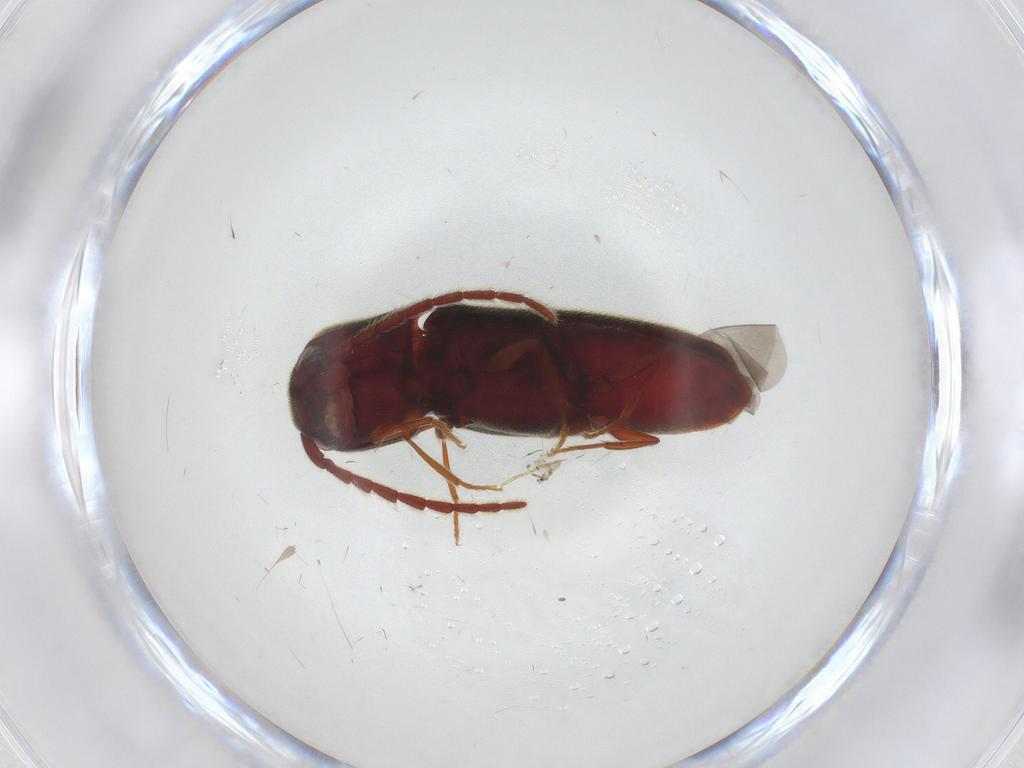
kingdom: Animalia
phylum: Arthropoda
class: Insecta
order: Coleoptera
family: Eucnemidae
